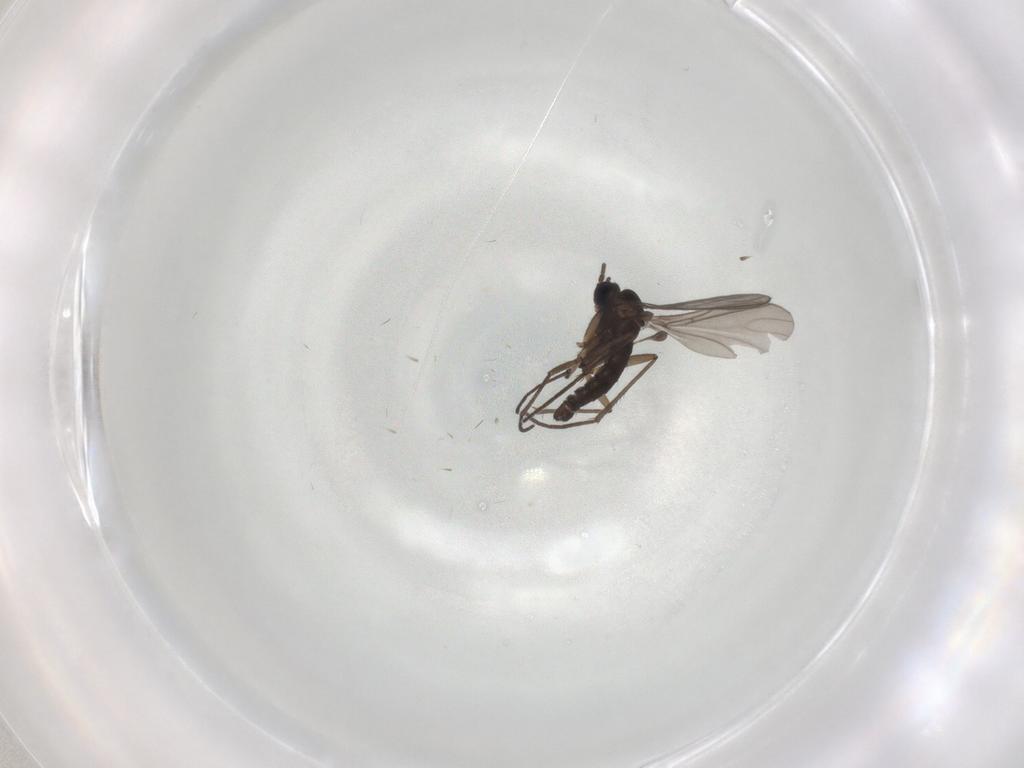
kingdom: Animalia
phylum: Arthropoda
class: Insecta
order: Diptera
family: Sciaridae
